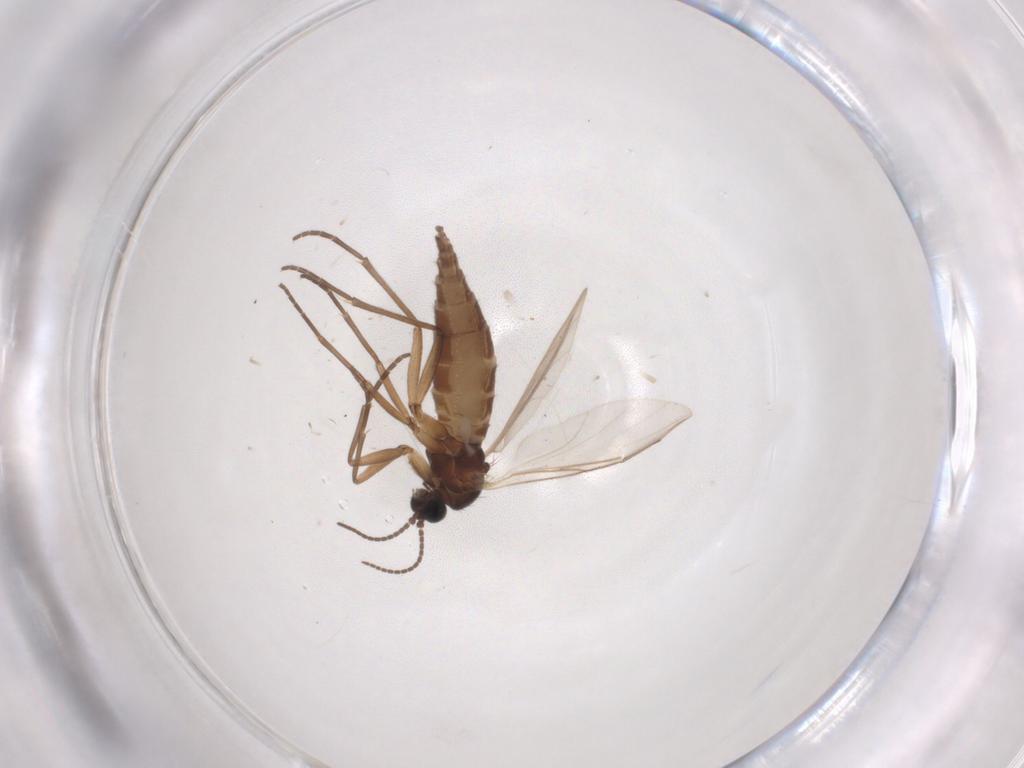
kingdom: Animalia
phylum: Arthropoda
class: Insecta
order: Diptera
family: Sciaridae
